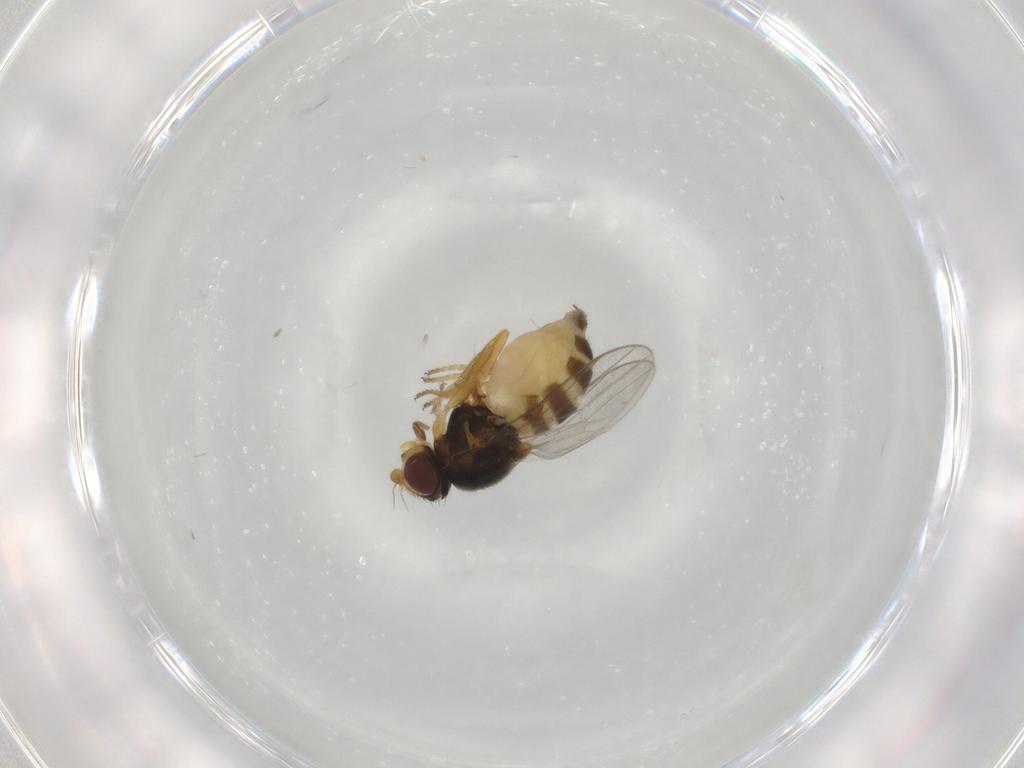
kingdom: Animalia
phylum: Arthropoda
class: Insecta
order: Diptera
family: Chloropidae
